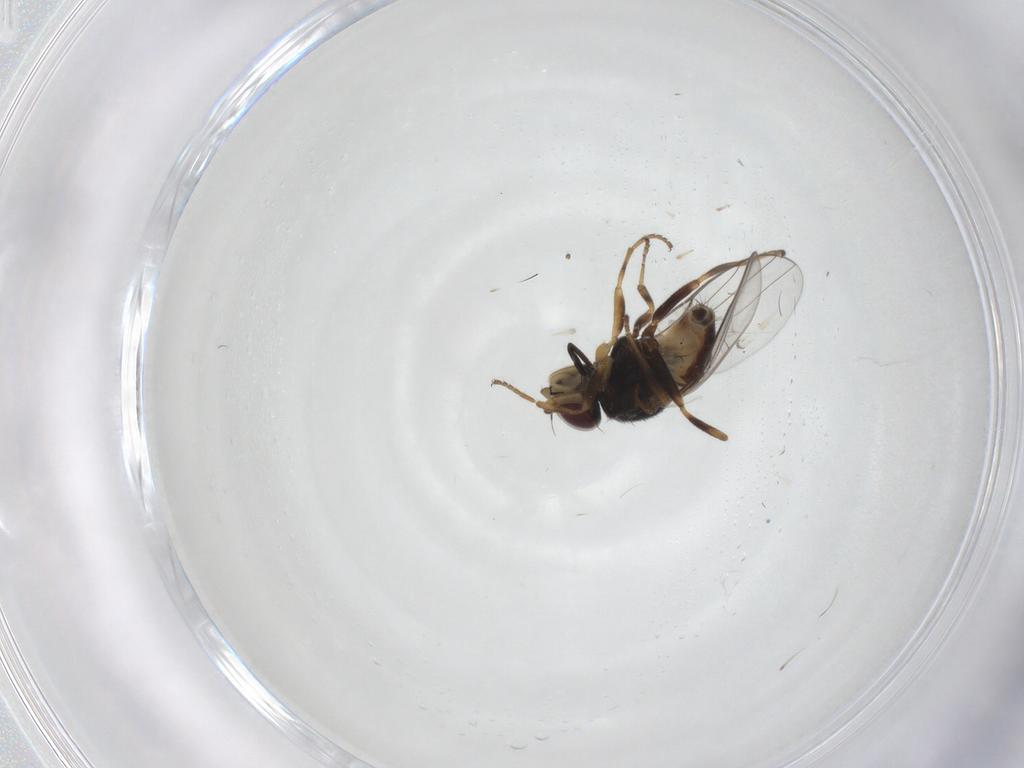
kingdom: Animalia
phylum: Arthropoda
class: Insecta
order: Diptera
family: Chloropidae
